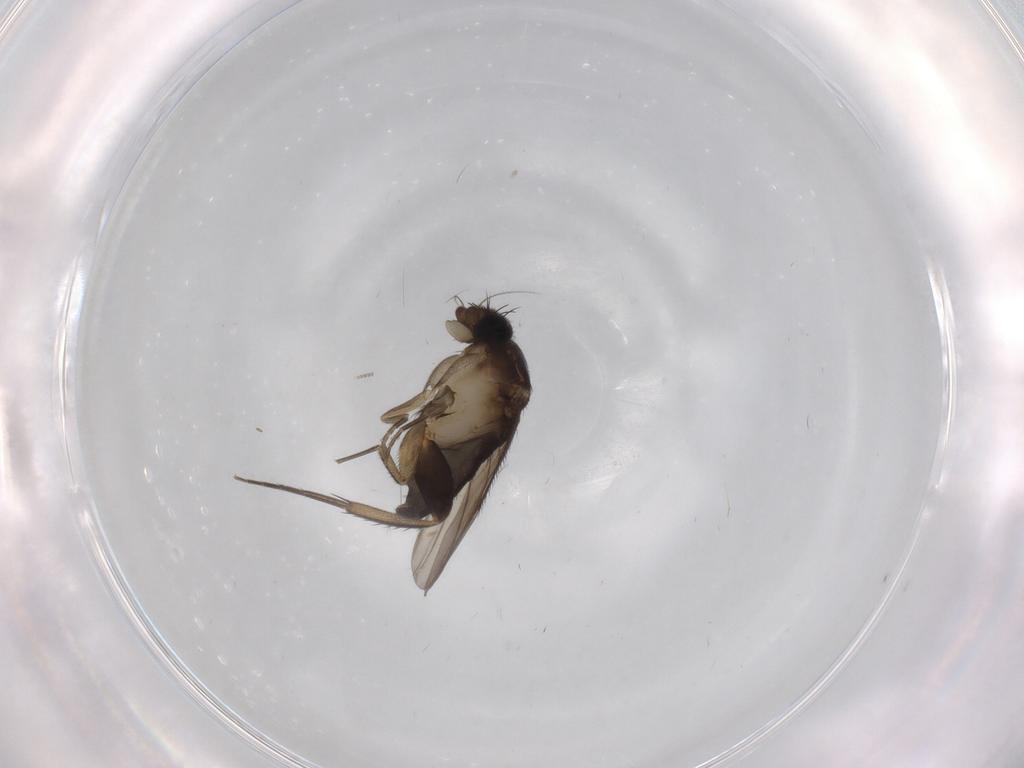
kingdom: Animalia
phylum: Arthropoda
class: Insecta
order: Diptera
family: Phoridae
